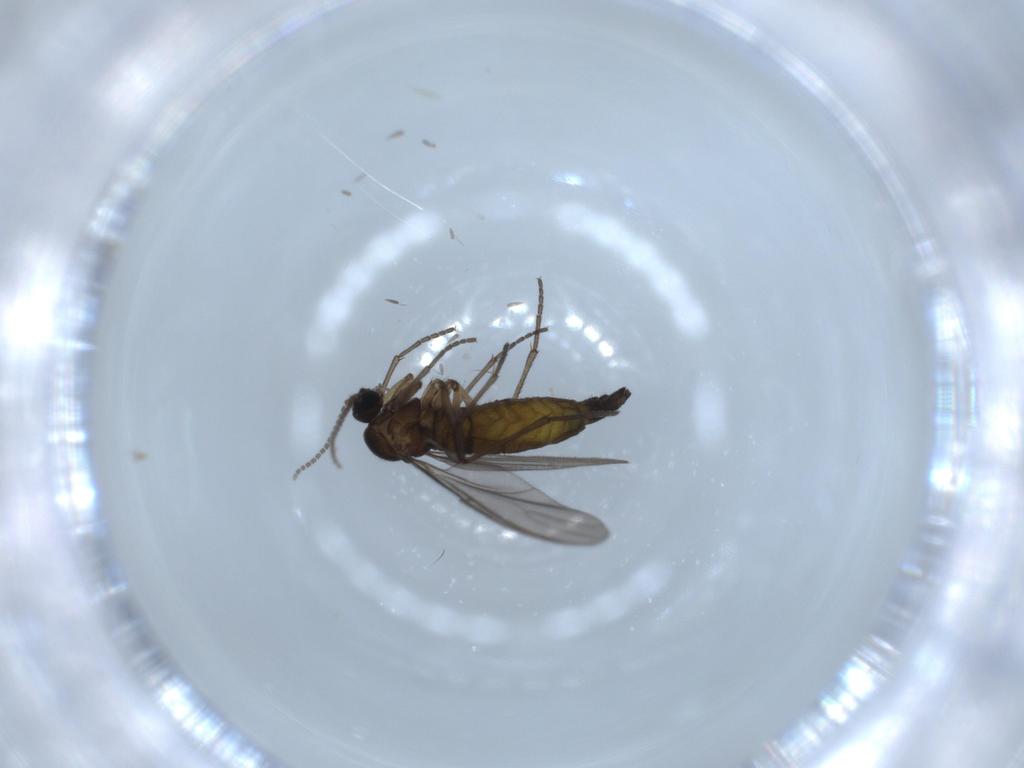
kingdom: Animalia
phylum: Arthropoda
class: Insecta
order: Diptera
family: Sciaridae
